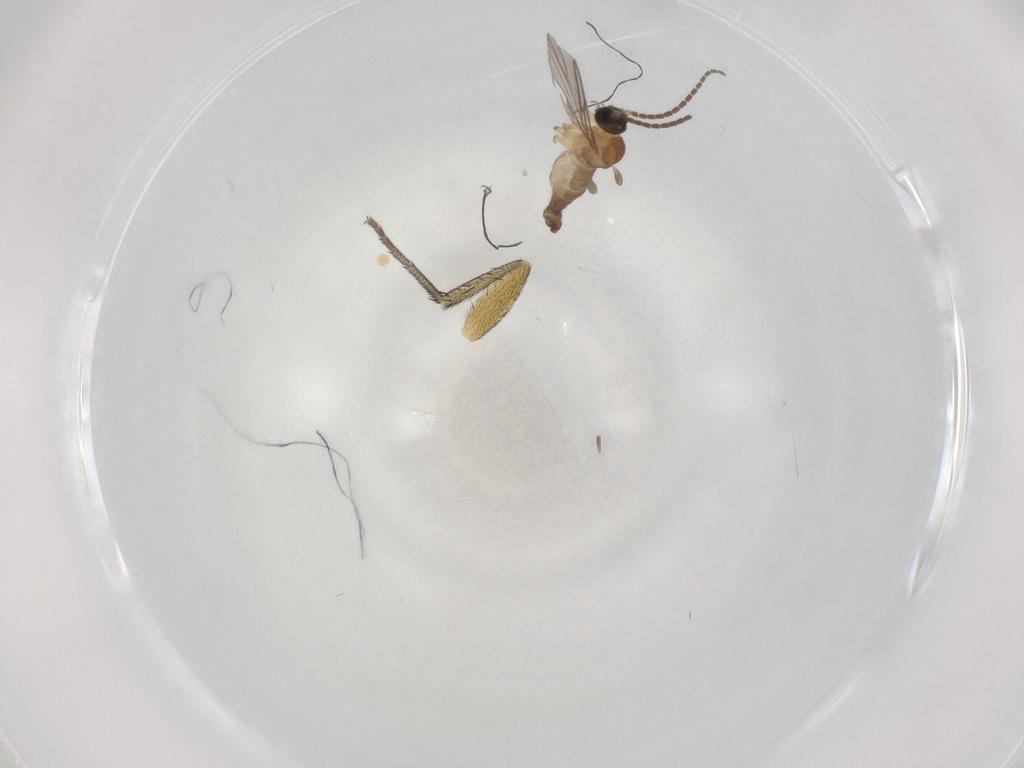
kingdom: Animalia
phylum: Arthropoda
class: Insecta
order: Diptera
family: Sciaridae
